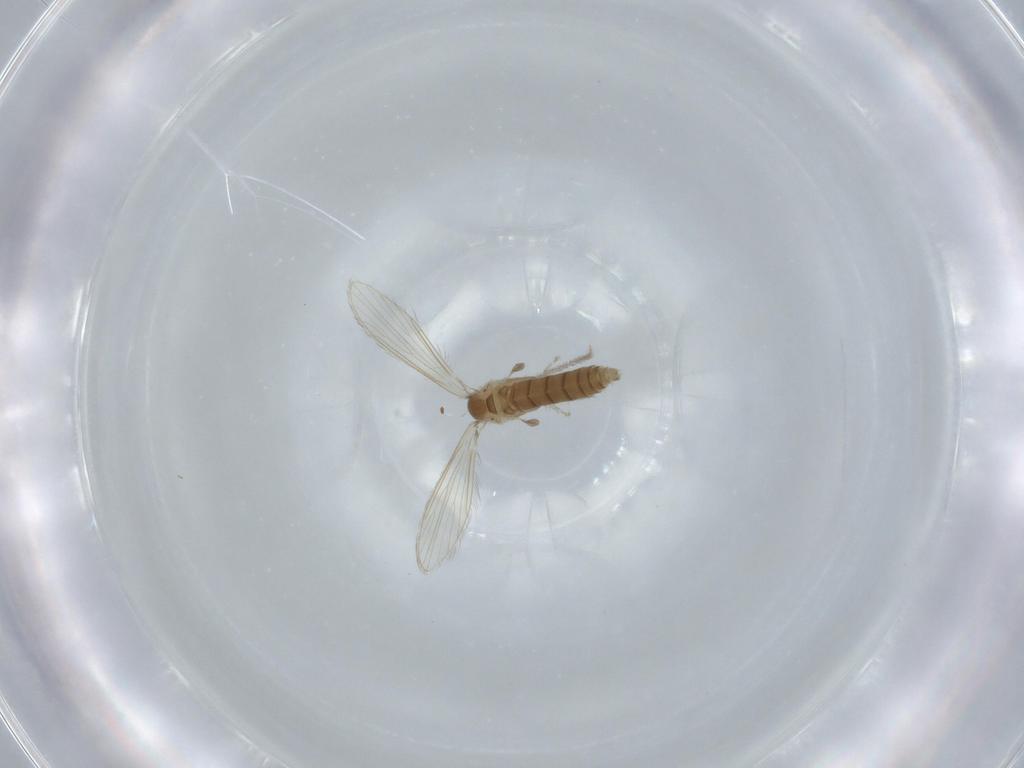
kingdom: Animalia
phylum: Arthropoda
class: Insecta
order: Diptera
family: Psychodidae
